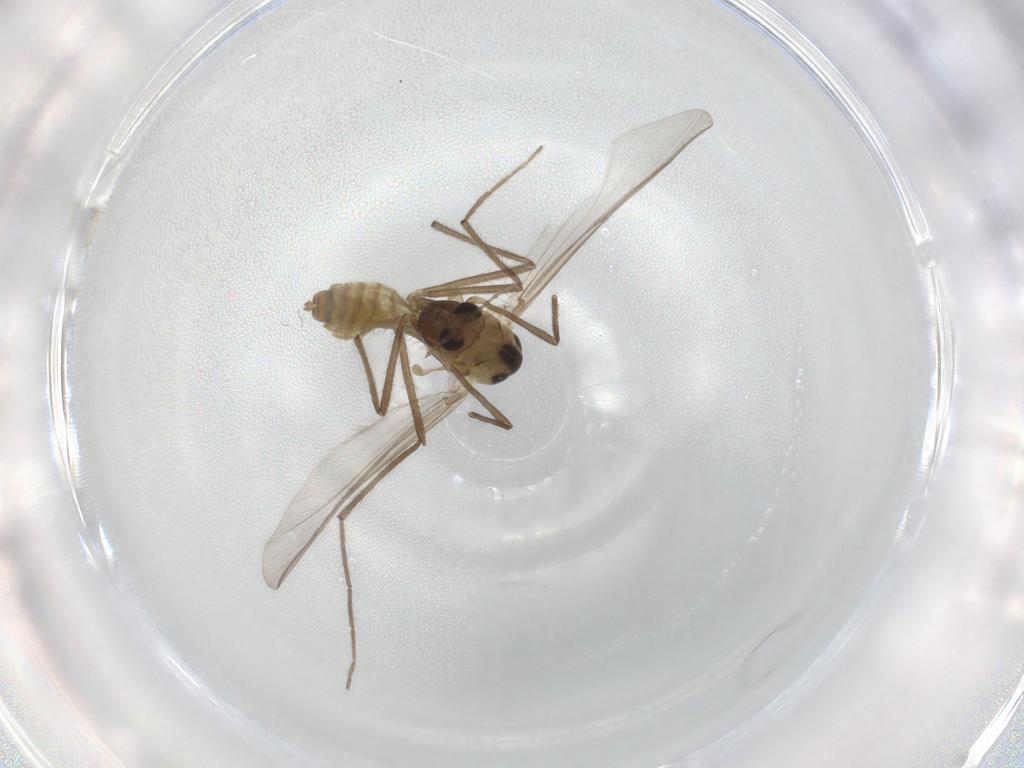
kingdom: Animalia
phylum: Arthropoda
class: Insecta
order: Diptera
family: Chironomidae
